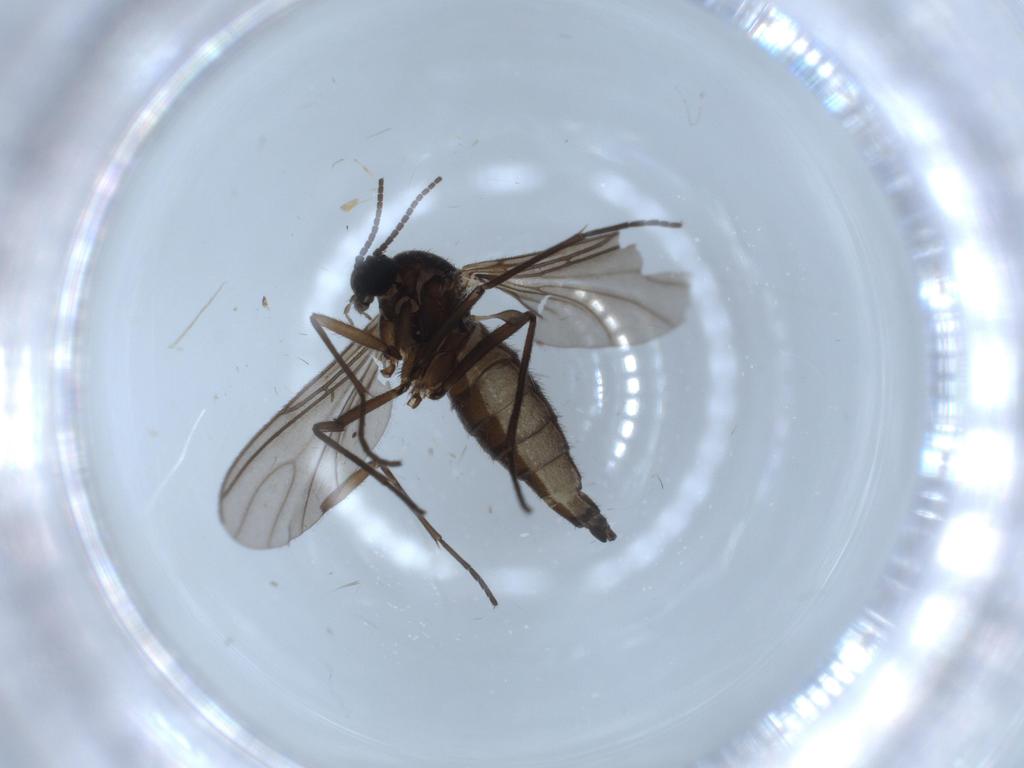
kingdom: Animalia
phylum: Arthropoda
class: Insecta
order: Diptera
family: Sciaridae
